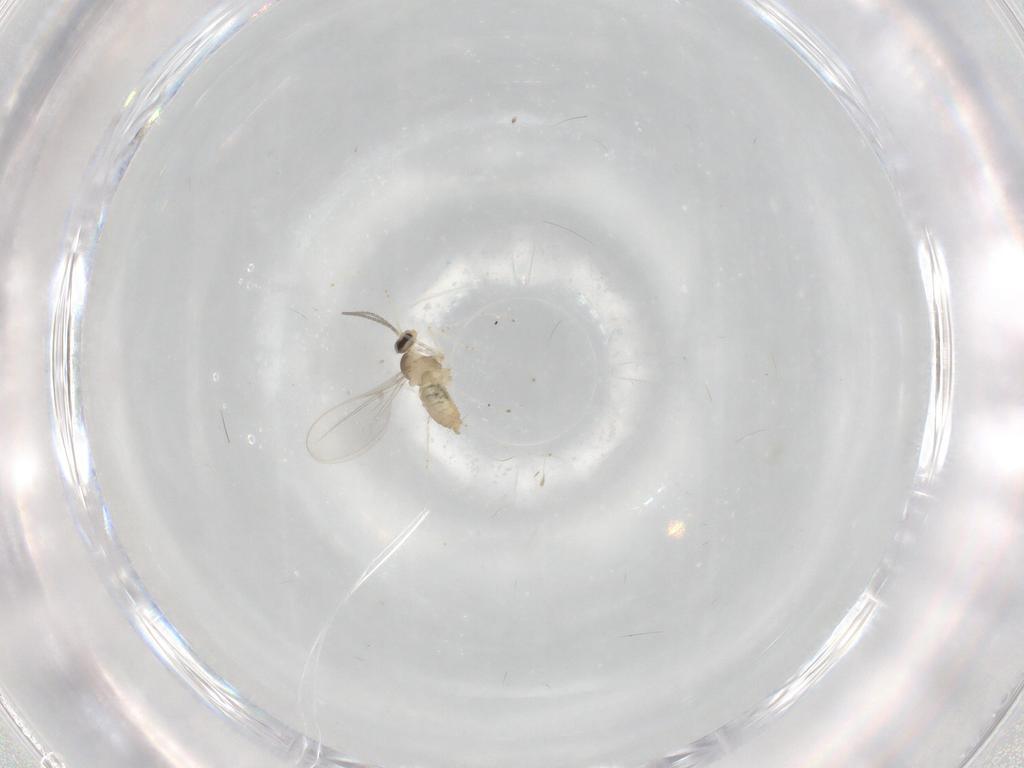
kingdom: Animalia
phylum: Arthropoda
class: Insecta
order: Diptera
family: Cecidomyiidae
